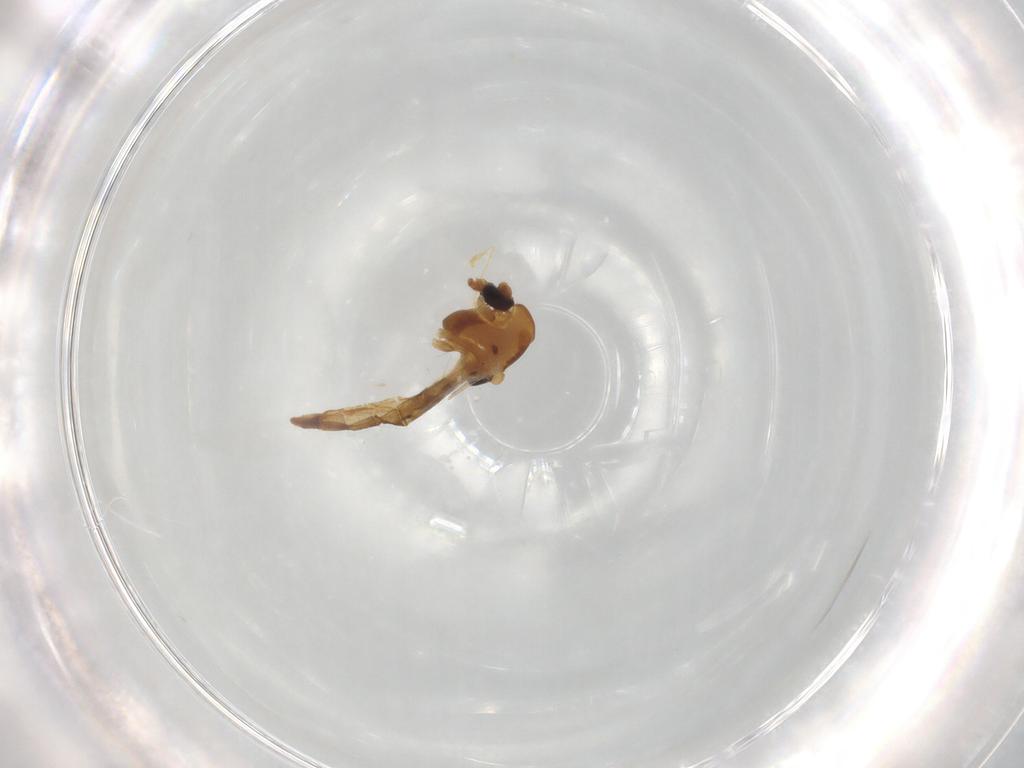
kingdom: Animalia
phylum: Arthropoda
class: Insecta
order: Diptera
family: Chironomidae
